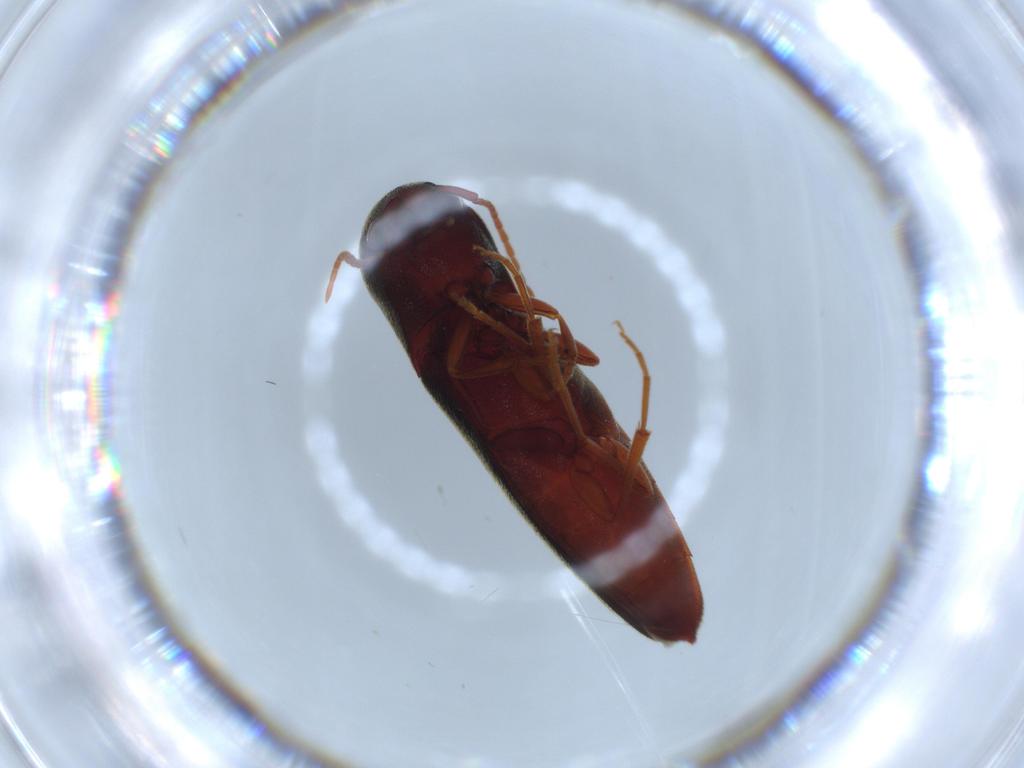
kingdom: Animalia
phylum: Arthropoda
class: Insecta
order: Coleoptera
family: Eucnemidae
